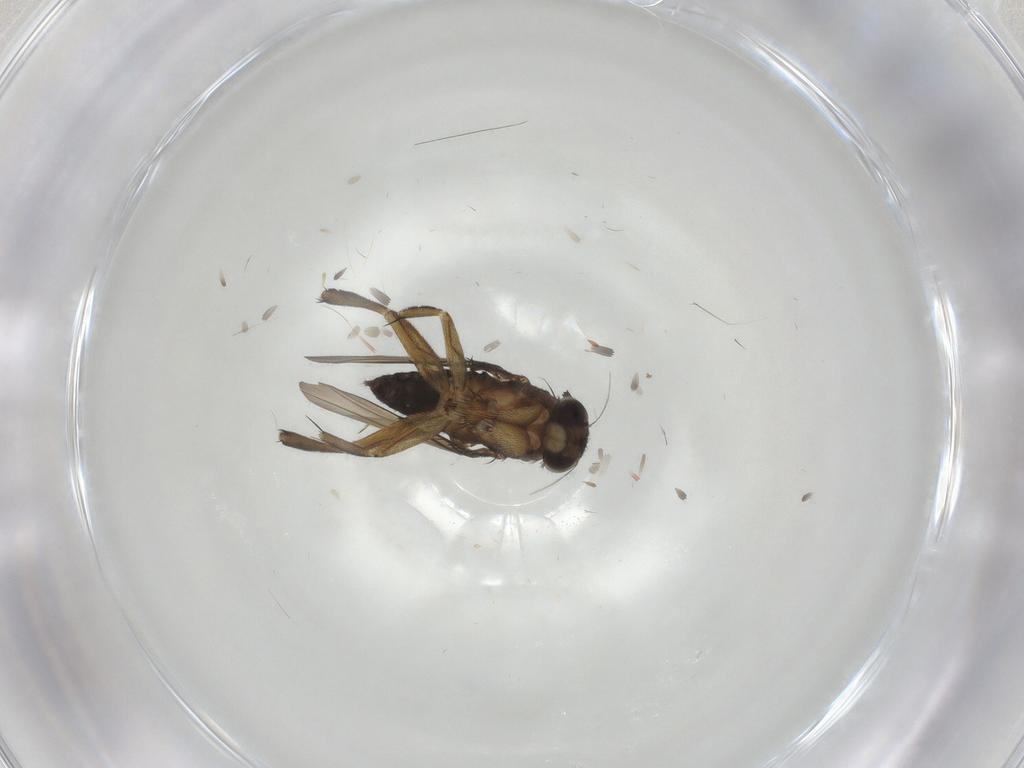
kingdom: Animalia
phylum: Arthropoda
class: Insecta
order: Diptera
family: Phoridae
